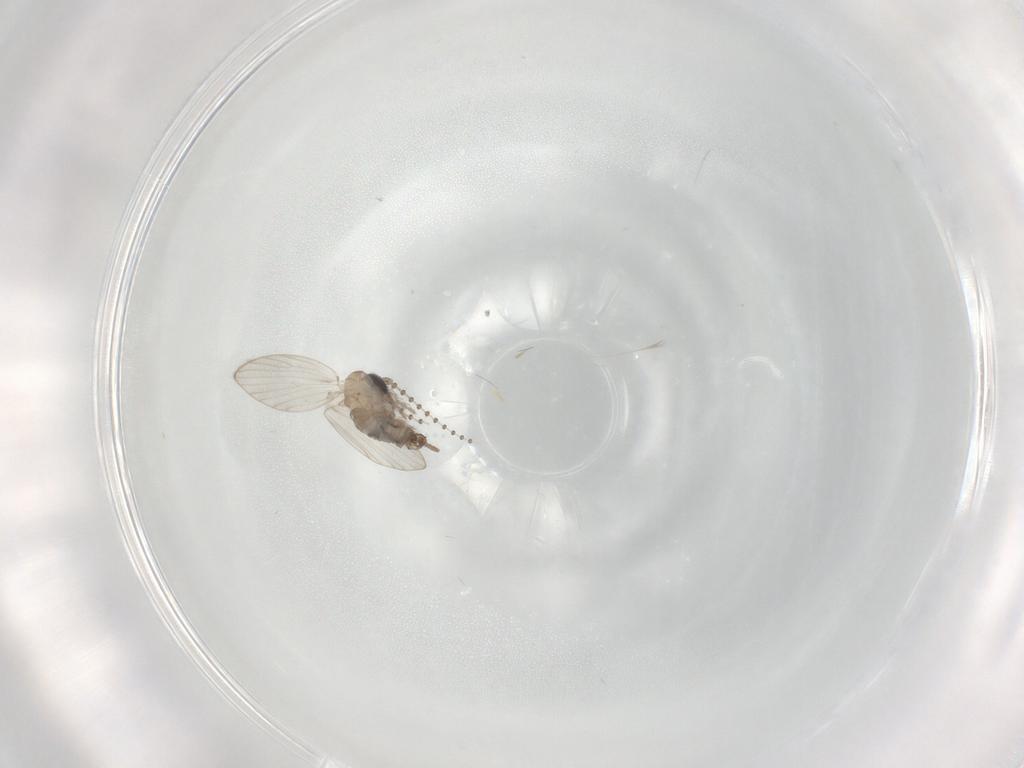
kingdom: Animalia
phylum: Arthropoda
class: Insecta
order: Diptera
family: Psychodidae
